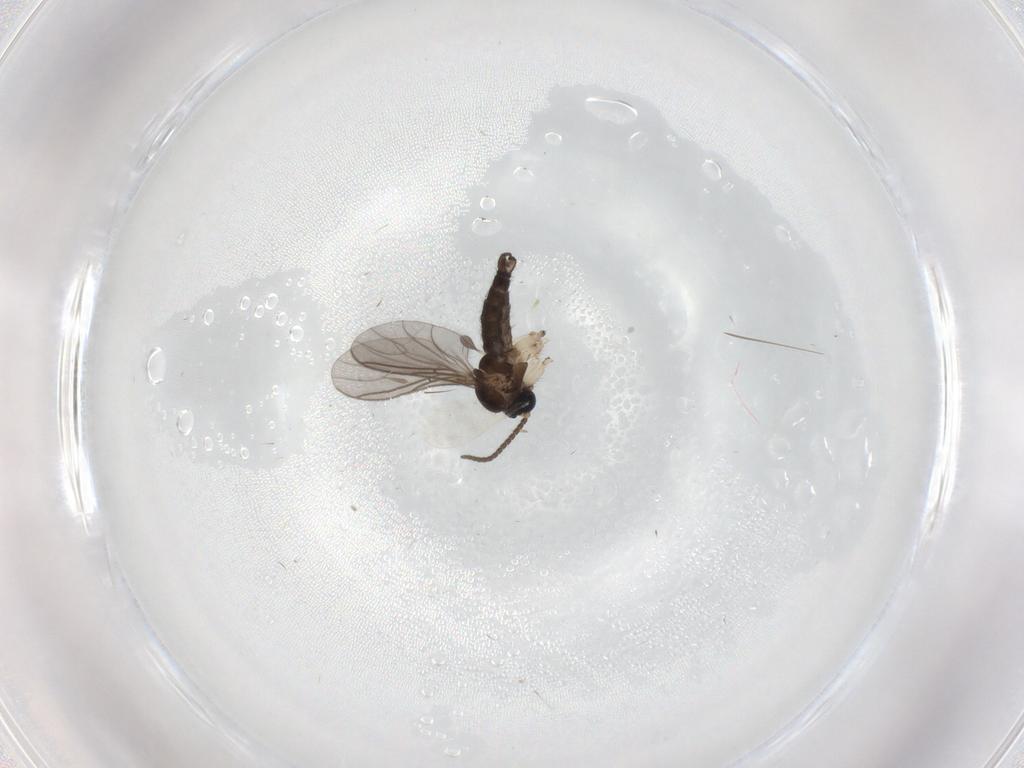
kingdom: Animalia
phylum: Arthropoda
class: Insecta
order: Diptera
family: Sciaridae
